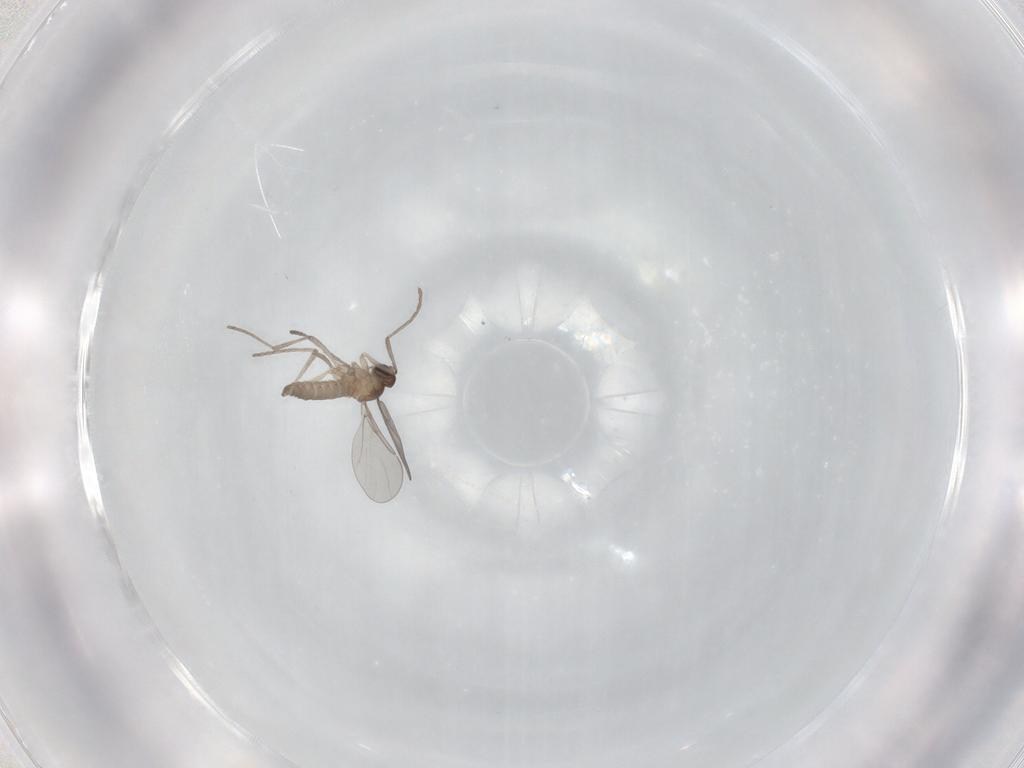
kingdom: Animalia
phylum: Arthropoda
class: Insecta
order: Diptera
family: Cecidomyiidae
